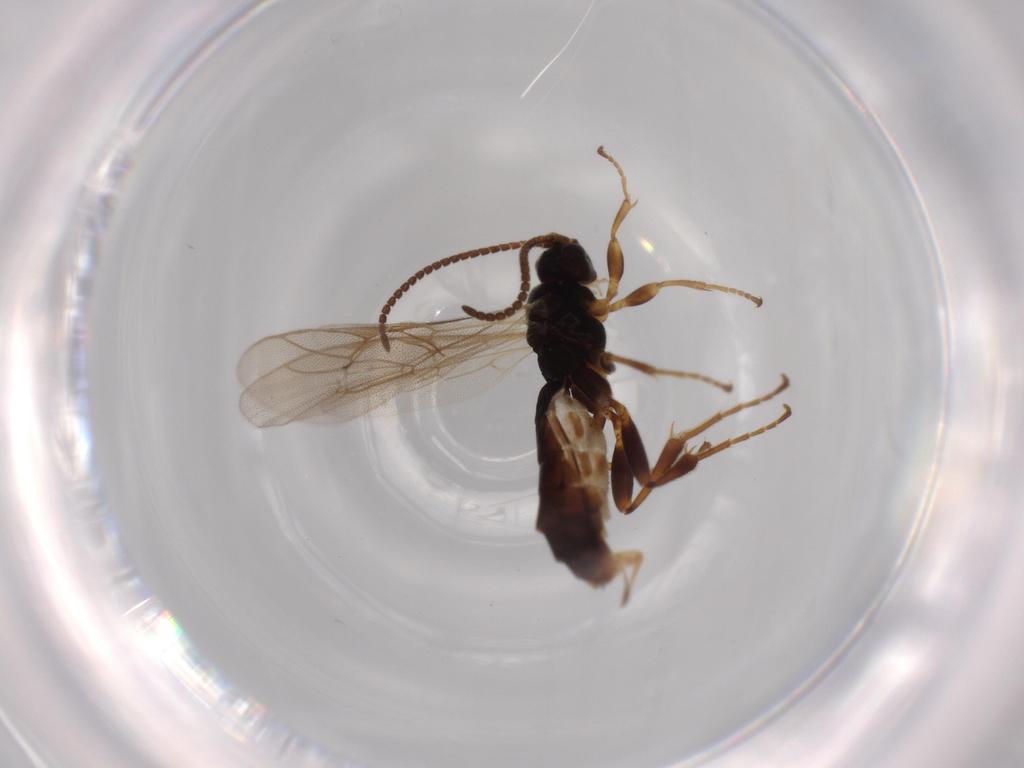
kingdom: Animalia
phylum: Arthropoda
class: Insecta
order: Hymenoptera
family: Ichneumonidae
